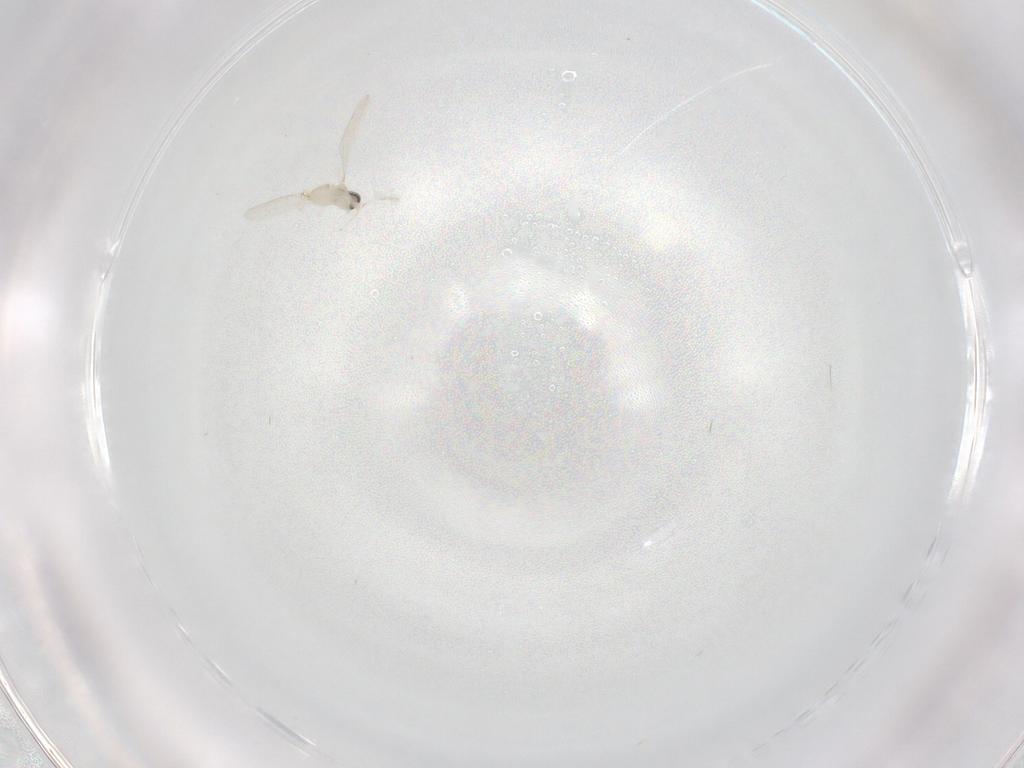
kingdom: Animalia
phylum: Arthropoda
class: Insecta
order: Diptera
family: Cecidomyiidae
